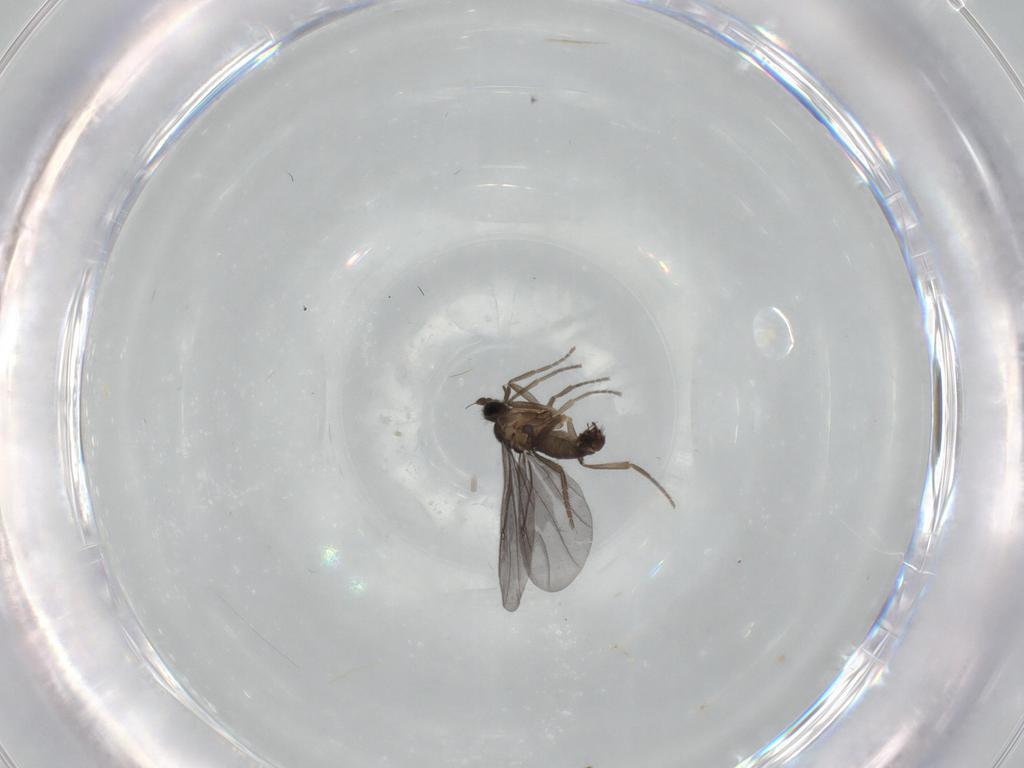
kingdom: Animalia
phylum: Arthropoda
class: Insecta
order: Diptera
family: Phoridae
